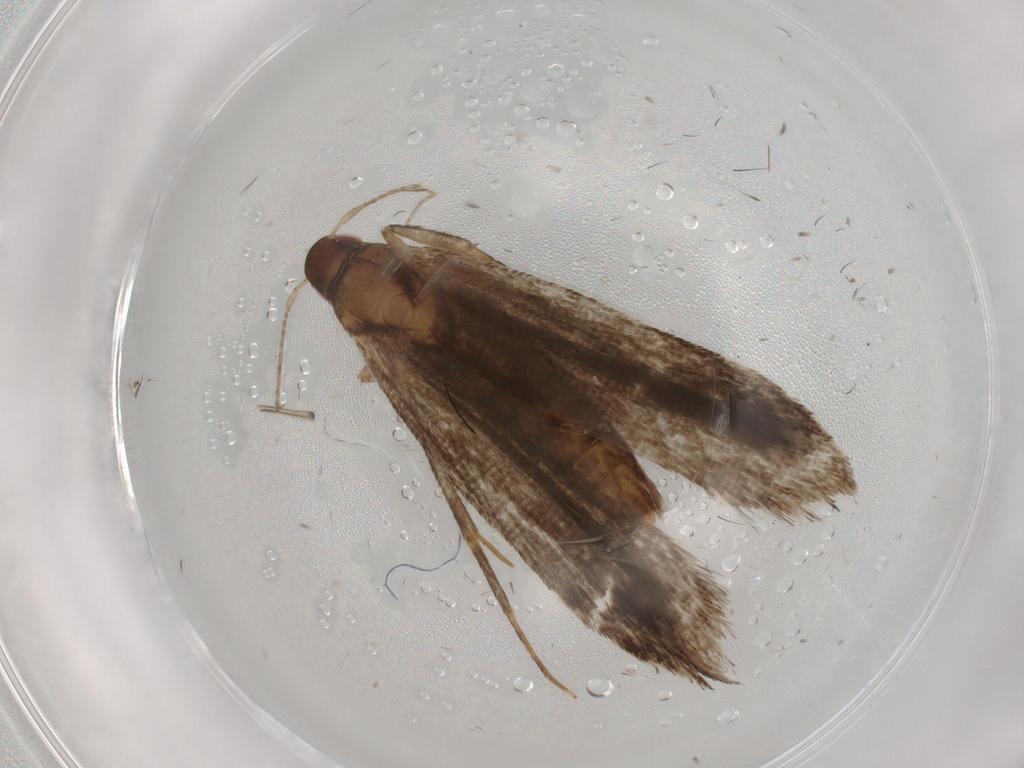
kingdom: Animalia
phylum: Arthropoda
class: Insecta
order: Lepidoptera
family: Gelechiidae
